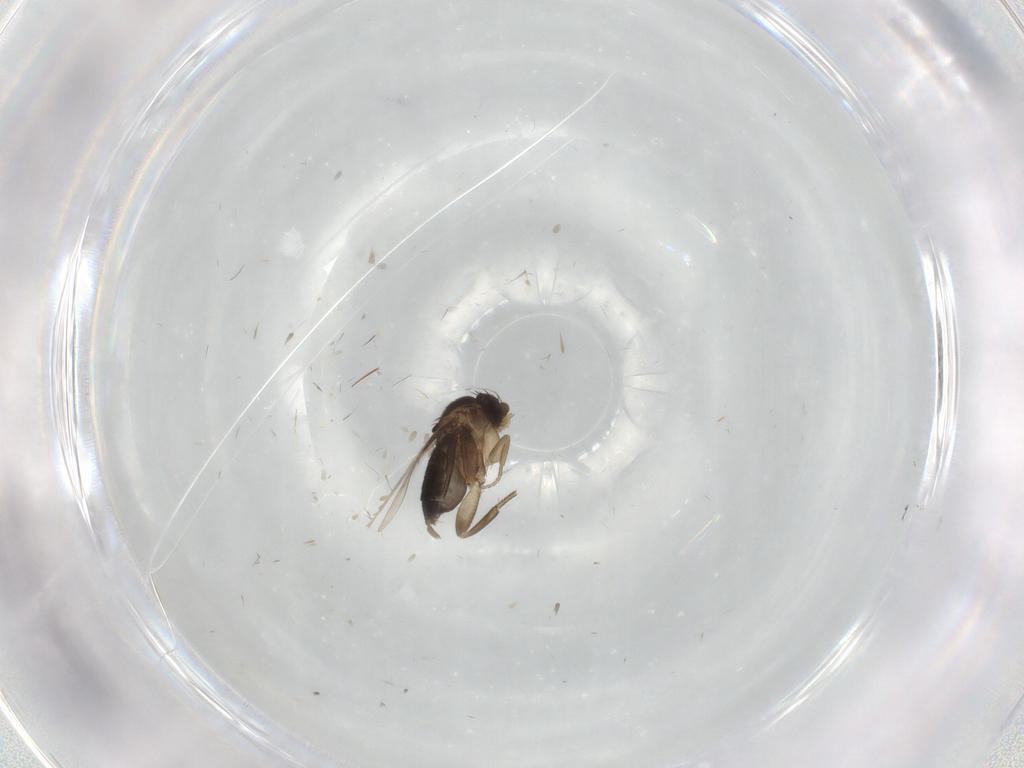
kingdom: Animalia
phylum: Arthropoda
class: Insecta
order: Diptera
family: Phoridae
